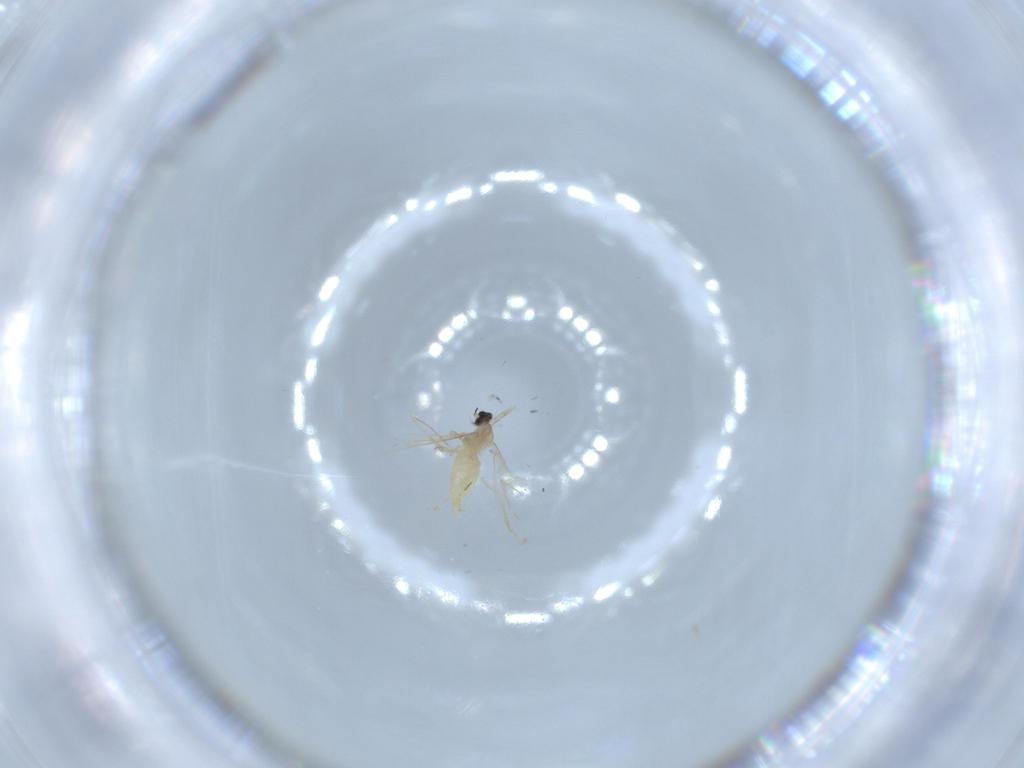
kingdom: Animalia
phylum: Arthropoda
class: Insecta
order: Diptera
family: Cecidomyiidae
